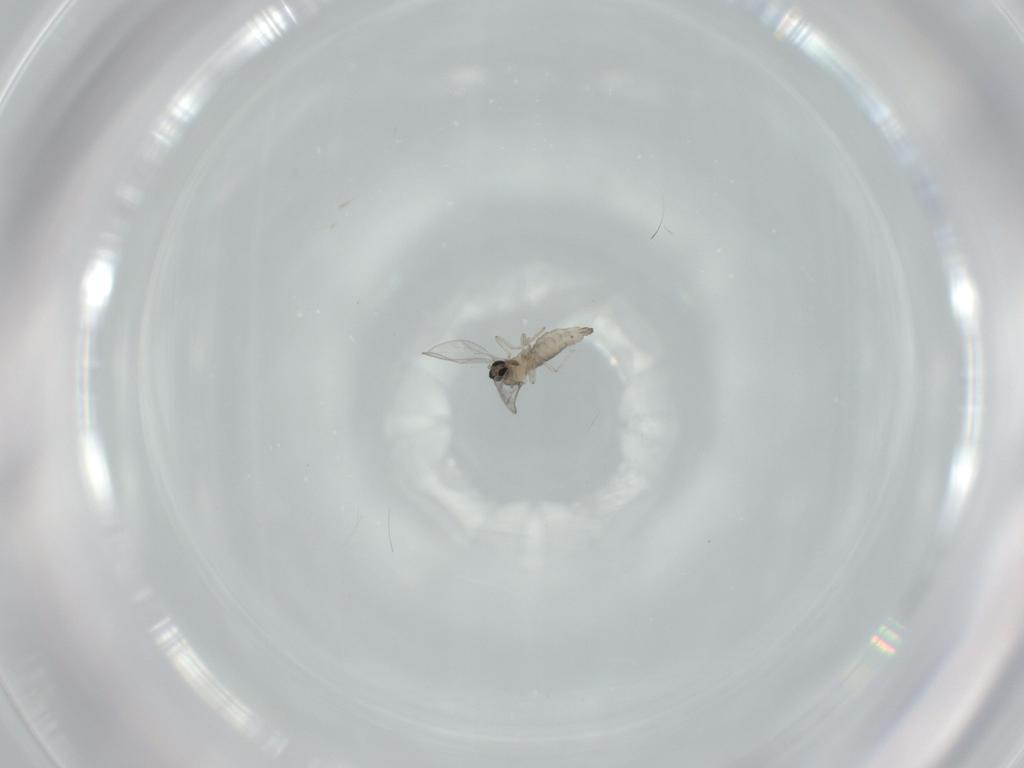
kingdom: Animalia
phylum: Arthropoda
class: Insecta
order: Diptera
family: Cecidomyiidae
